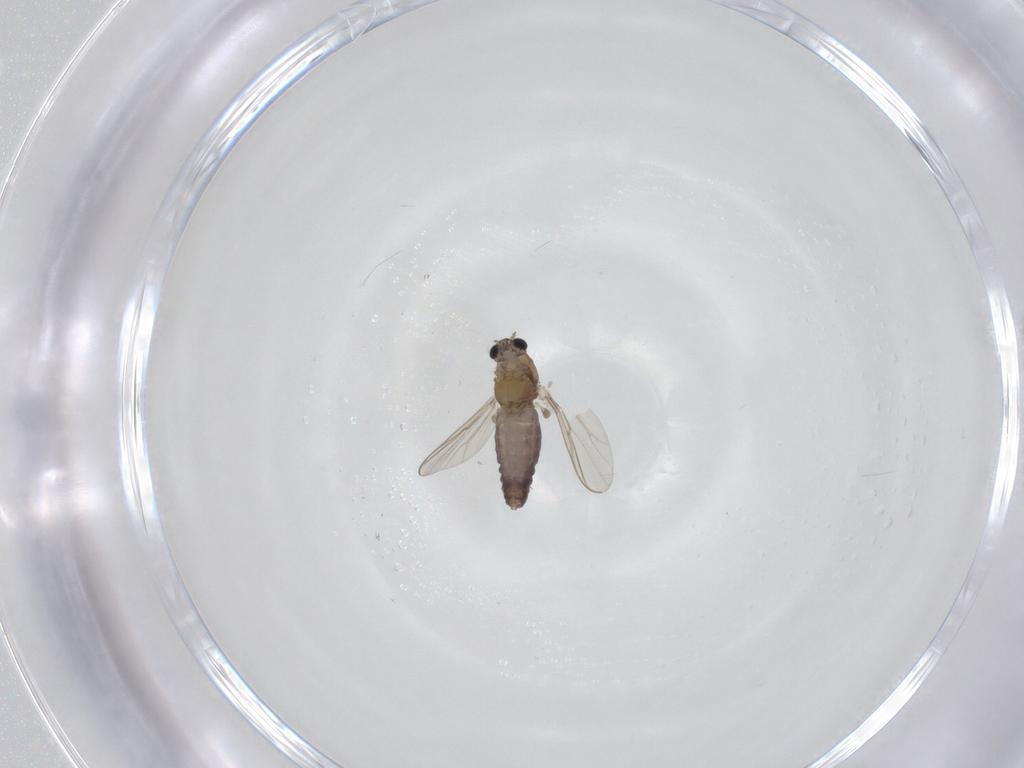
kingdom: Animalia
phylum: Arthropoda
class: Insecta
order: Diptera
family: Chironomidae
